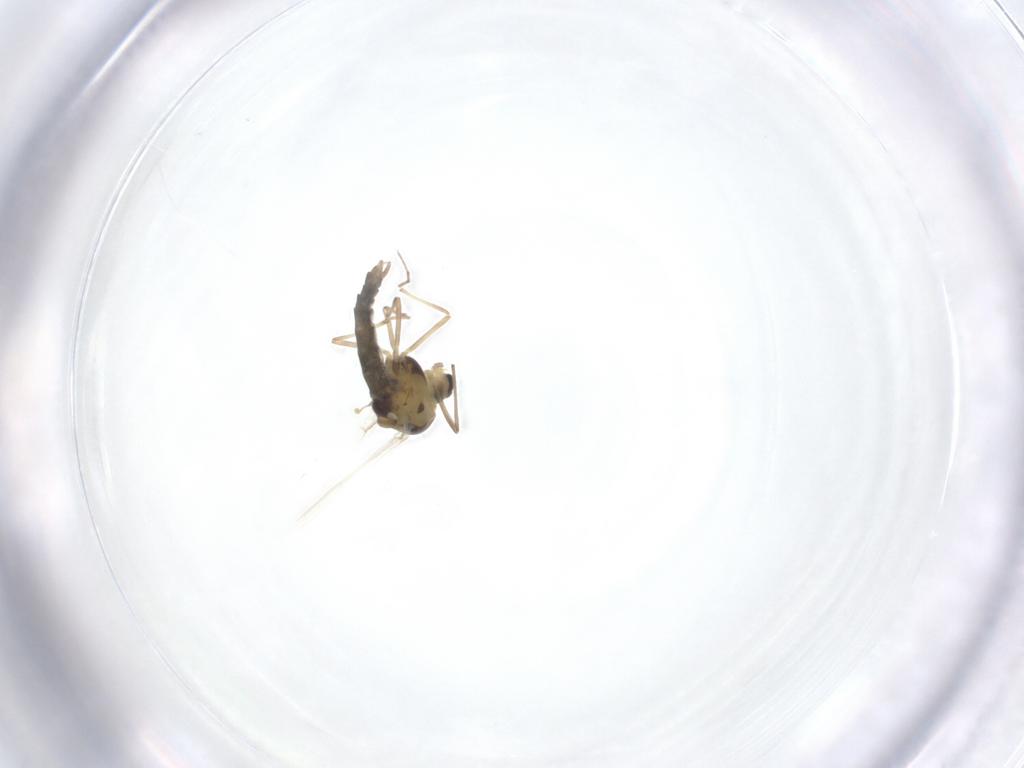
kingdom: Animalia
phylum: Arthropoda
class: Insecta
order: Diptera
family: Chironomidae
